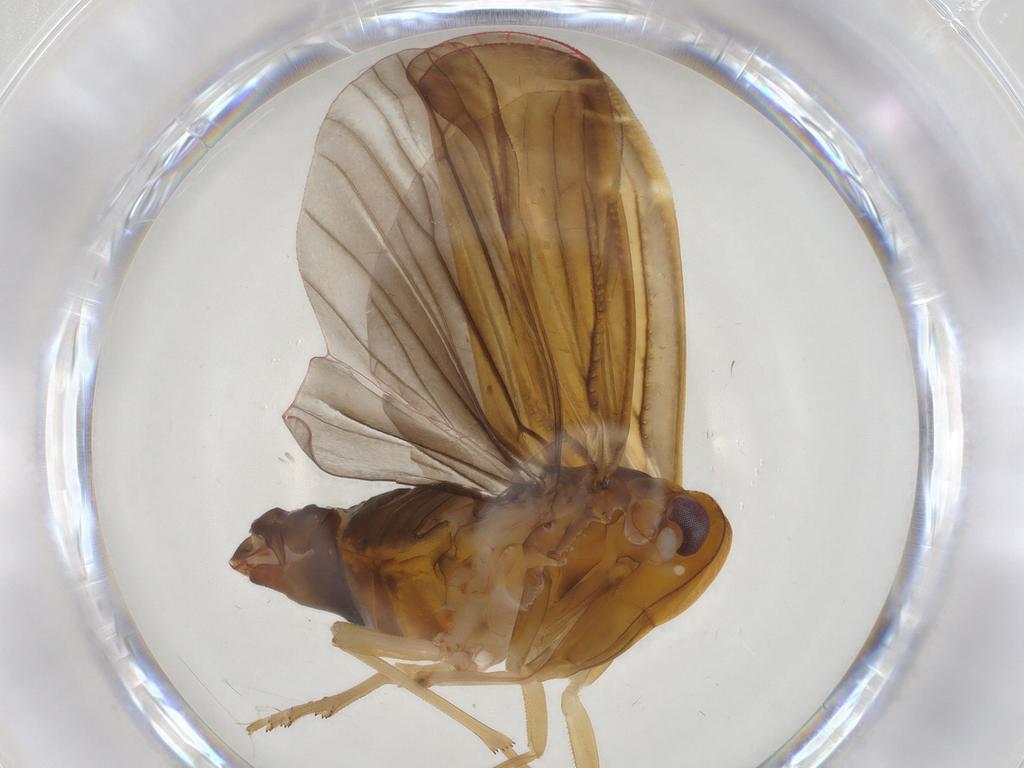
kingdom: Animalia
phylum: Arthropoda
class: Insecta
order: Hemiptera
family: Derbidae
